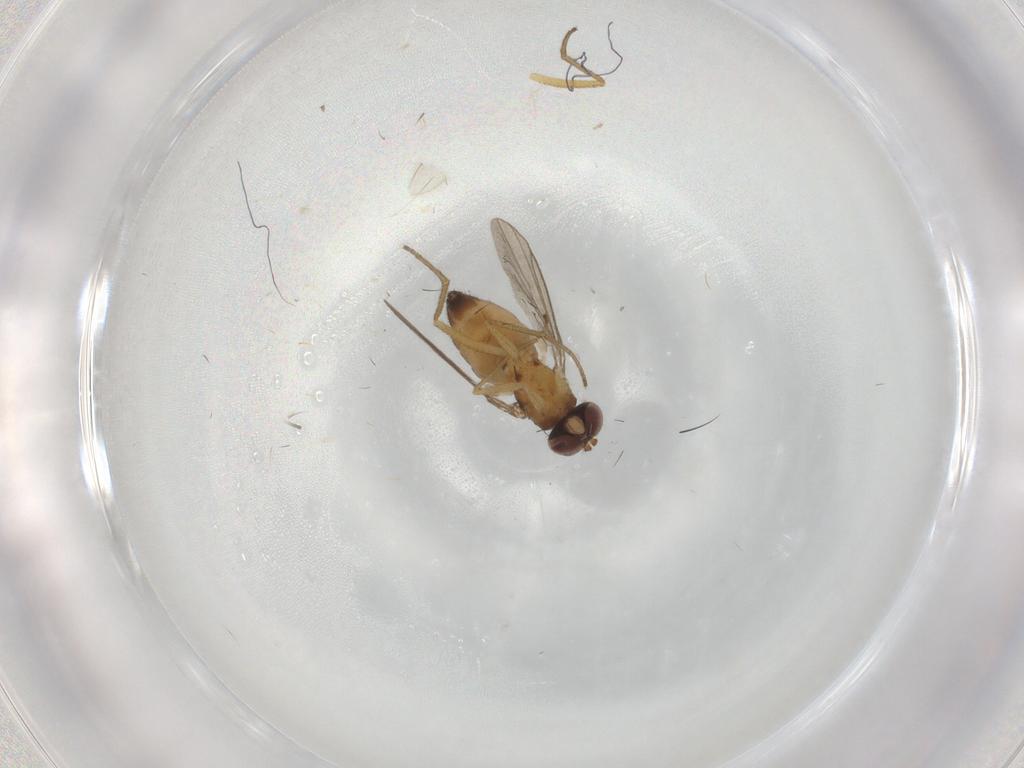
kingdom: Animalia
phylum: Arthropoda
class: Insecta
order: Diptera
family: Dolichopodidae
